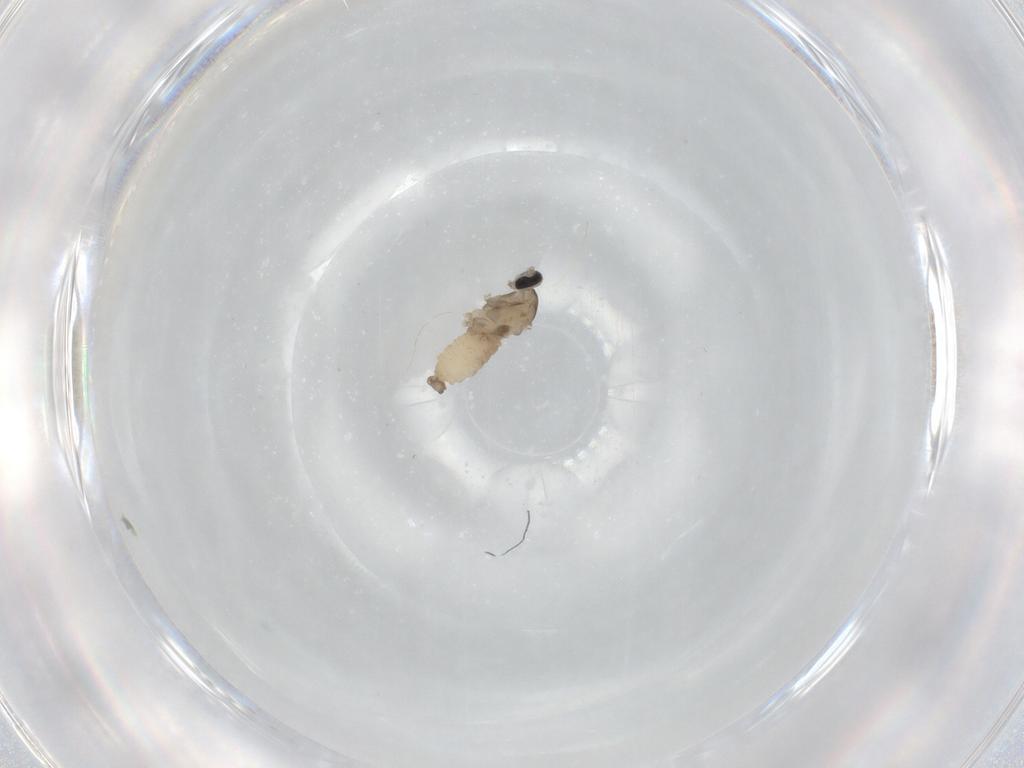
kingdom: Animalia
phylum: Arthropoda
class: Insecta
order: Diptera
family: Cecidomyiidae
